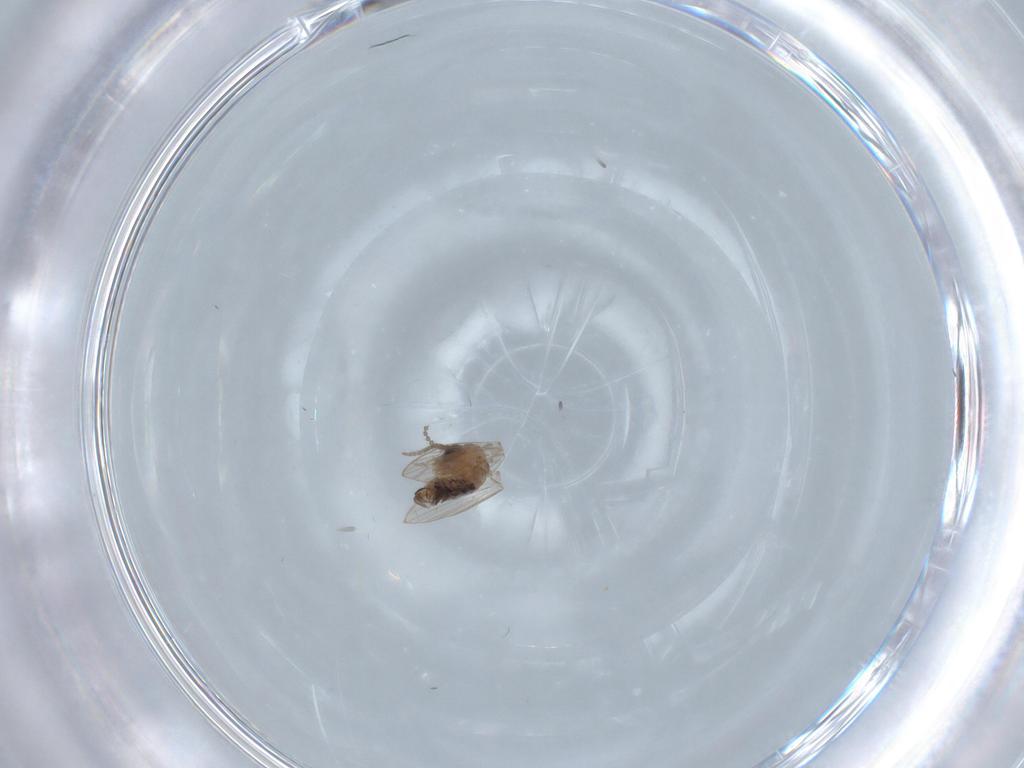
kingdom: Animalia
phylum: Arthropoda
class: Insecta
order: Diptera
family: Psychodidae
